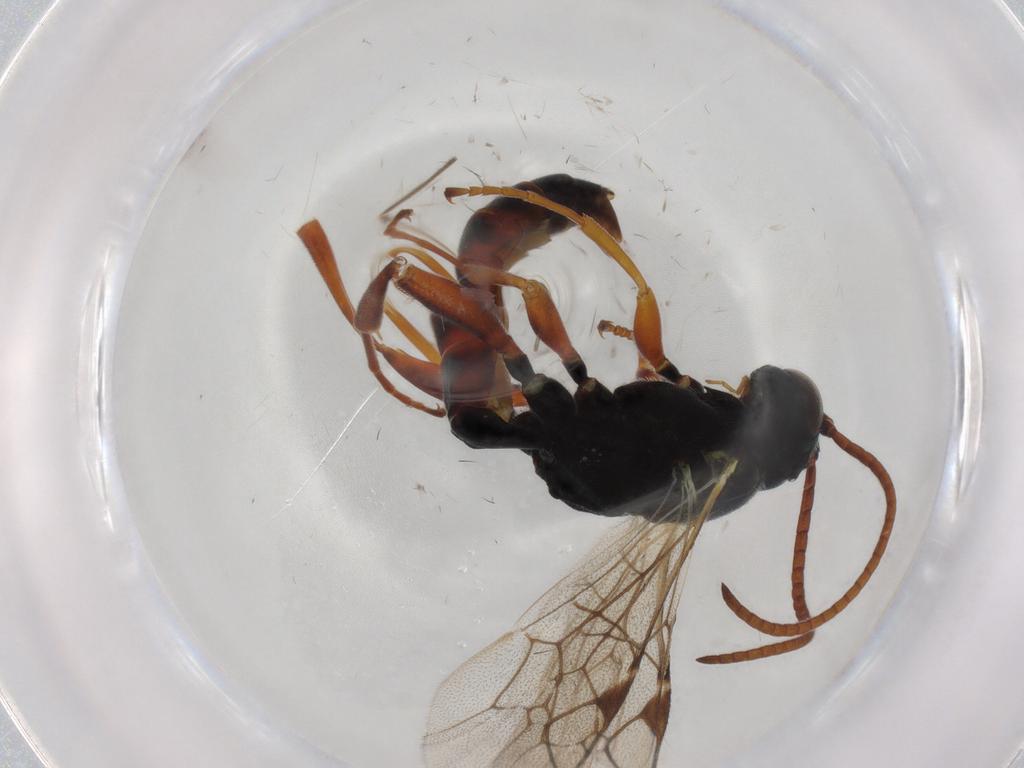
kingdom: Animalia
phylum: Arthropoda
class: Insecta
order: Hymenoptera
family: Ichneumonidae
